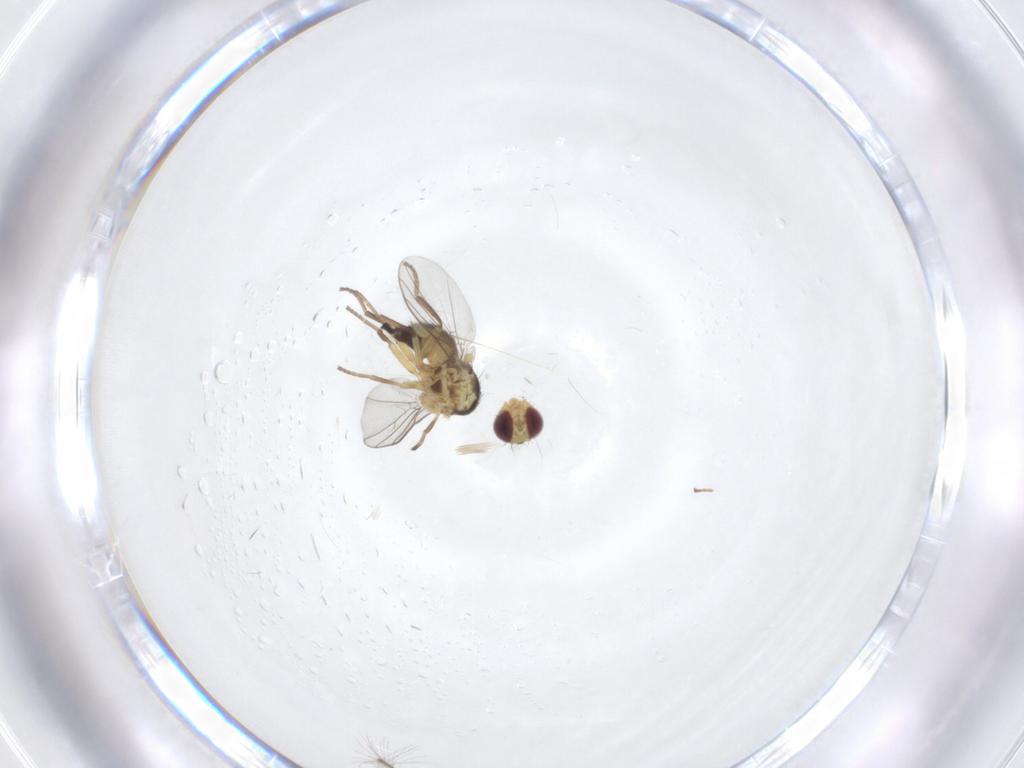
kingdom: Animalia
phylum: Arthropoda
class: Insecta
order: Diptera
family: Agromyzidae
